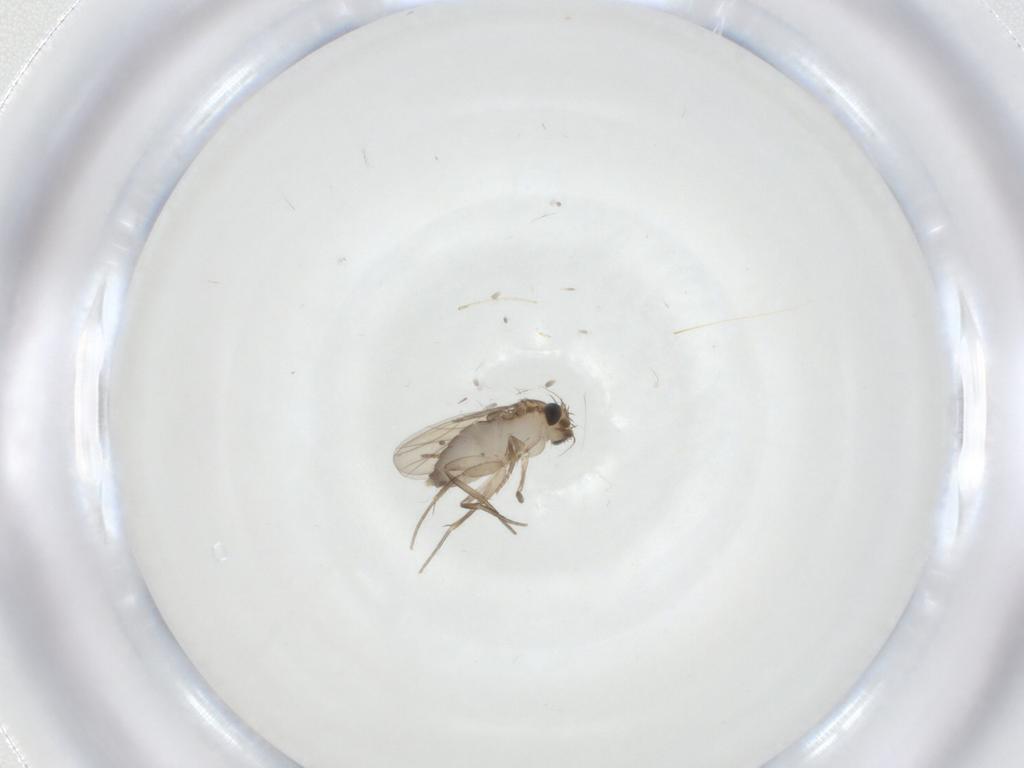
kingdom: Animalia
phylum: Arthropoda
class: Insecta
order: Diptera
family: Phoridae
